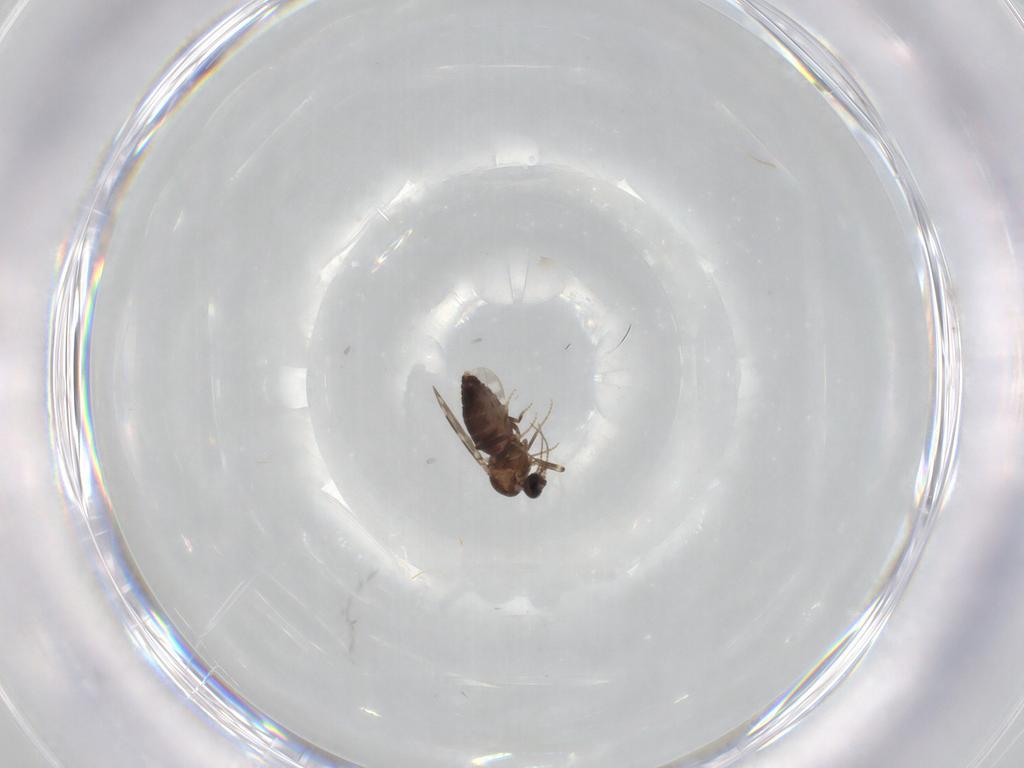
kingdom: Animalia
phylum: Arthropoda
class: Insecta
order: Diptera
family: Ceratopogonidae
